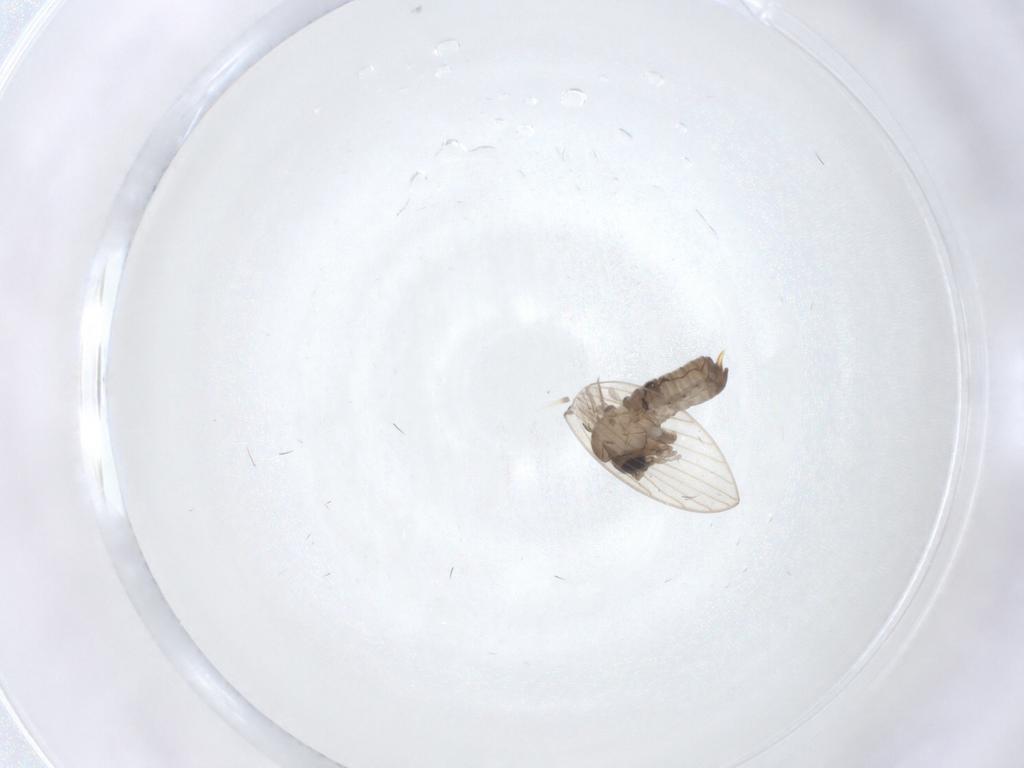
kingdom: Animalia
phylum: Arthropoda
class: Insecta
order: Diptera
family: Psychodidae
